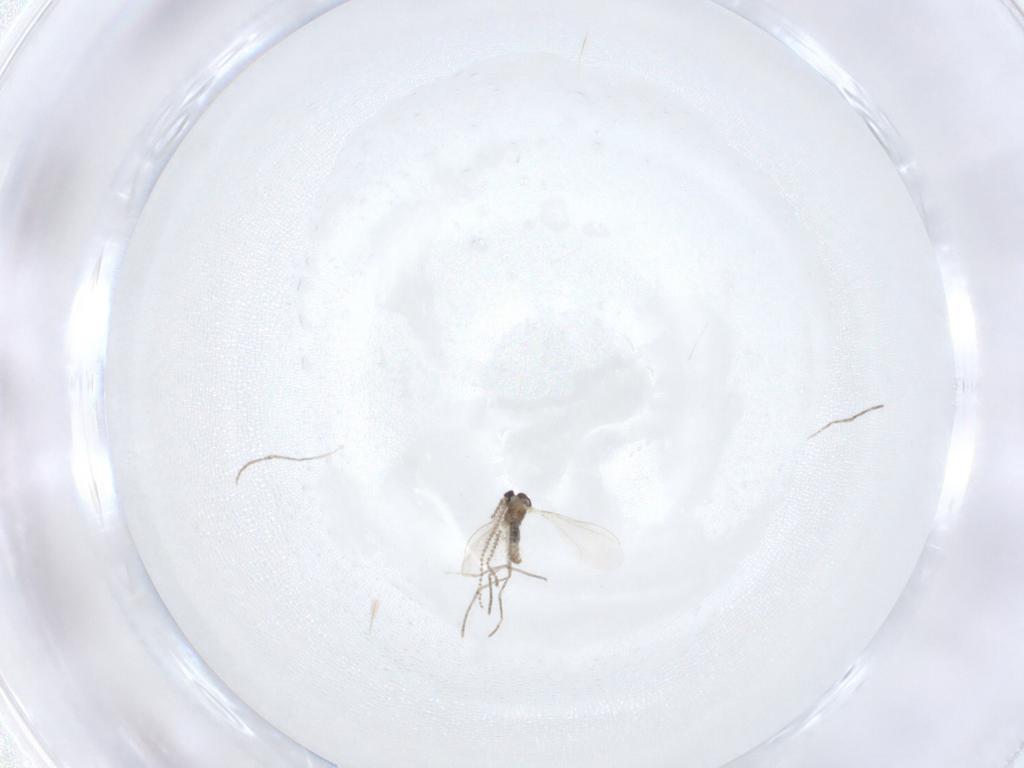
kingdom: Animalia
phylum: Arthropoda
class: Insecta
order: Diptera
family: Cecidomyiidae
